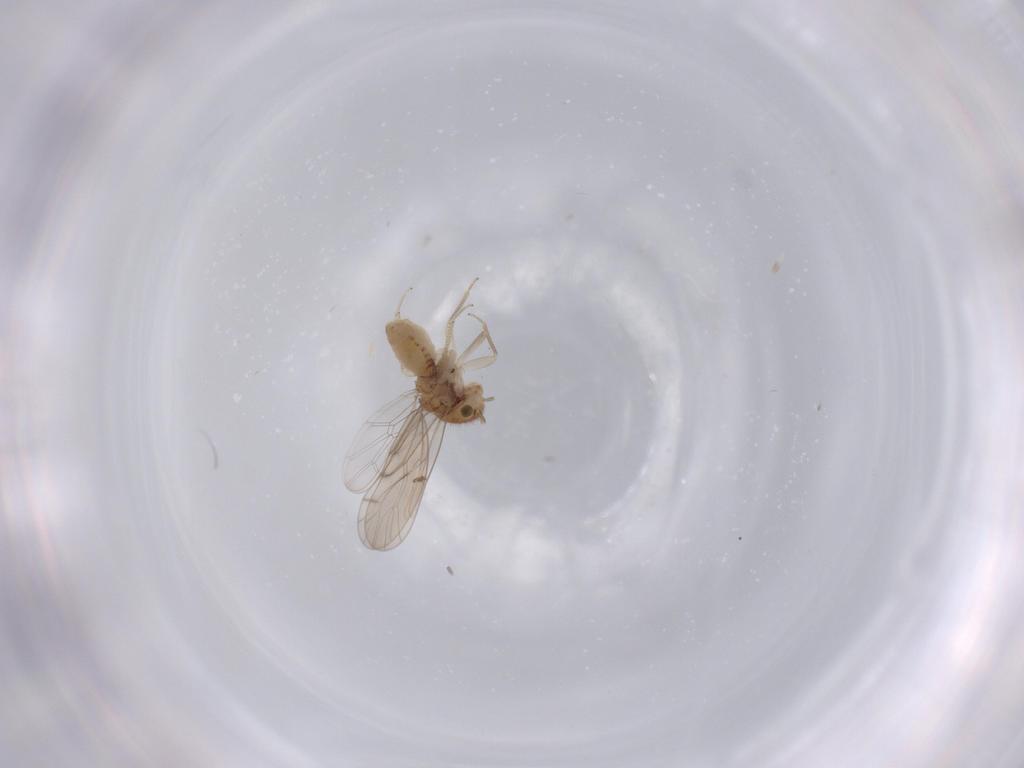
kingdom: Animalia
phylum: Arthropoda
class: Insecta
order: Psocodea
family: Ectopsocidae
